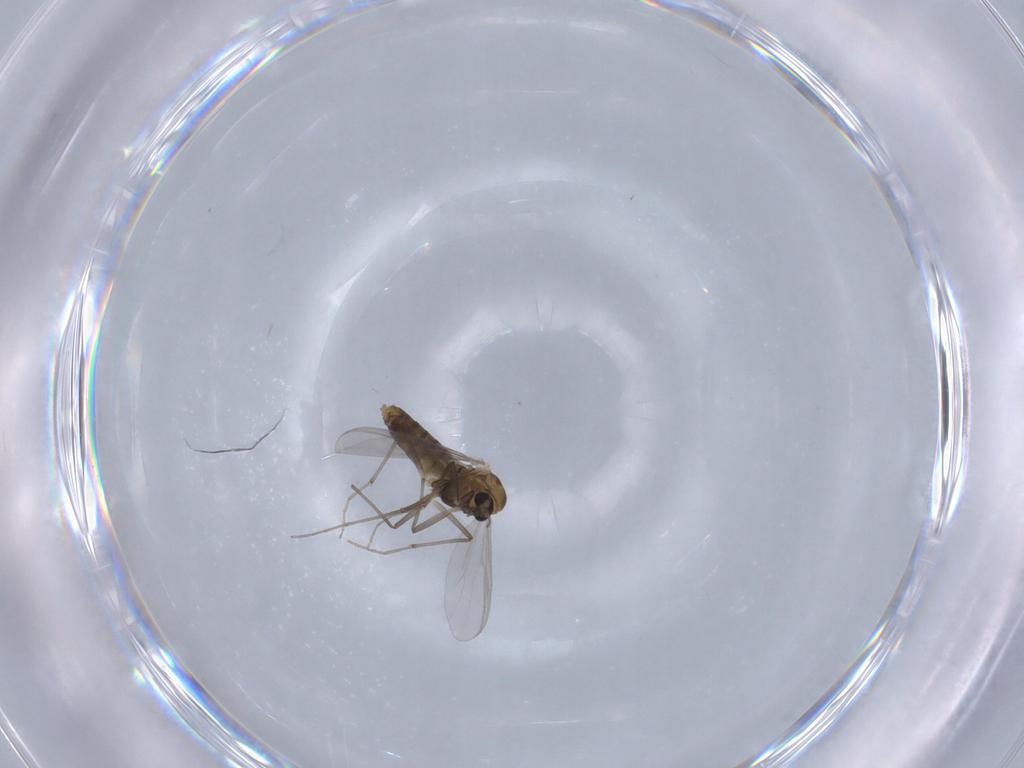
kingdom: Animalia
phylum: Arthropoda
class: Insecta
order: Diptera
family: Chironomidae
